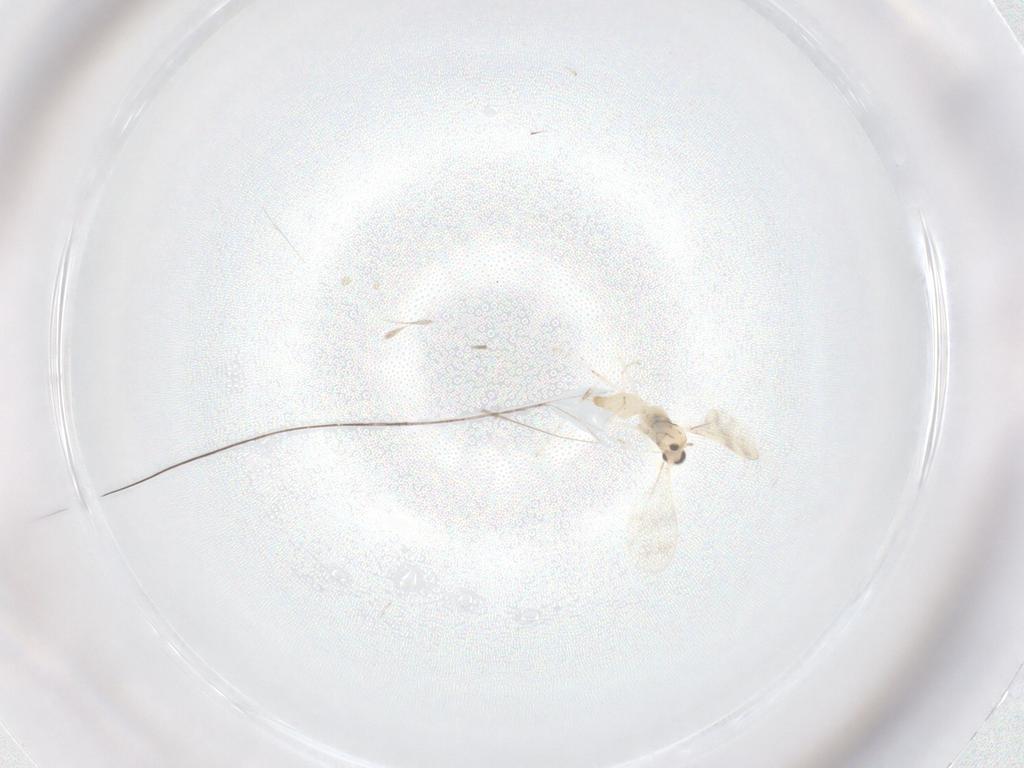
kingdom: Animalia
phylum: Arthropoda
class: Insecta
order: Diptera
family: Cecidomyiidae
